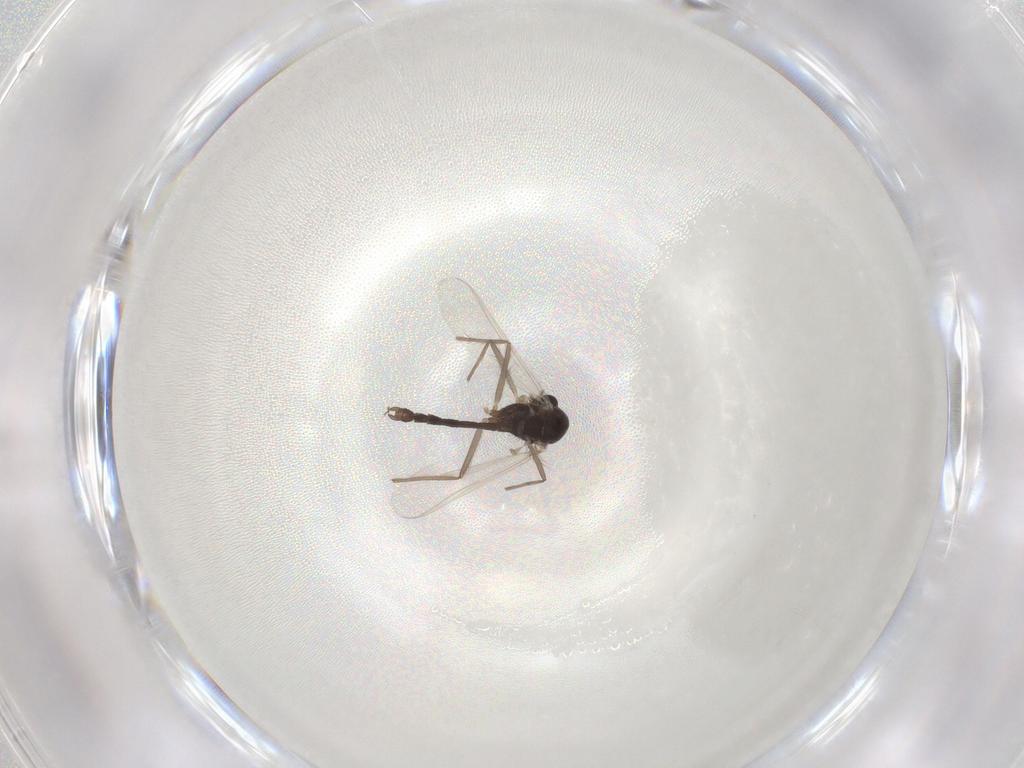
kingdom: Animalia
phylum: Arthropoda
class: Insecta
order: Diptera
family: Chironomidae
